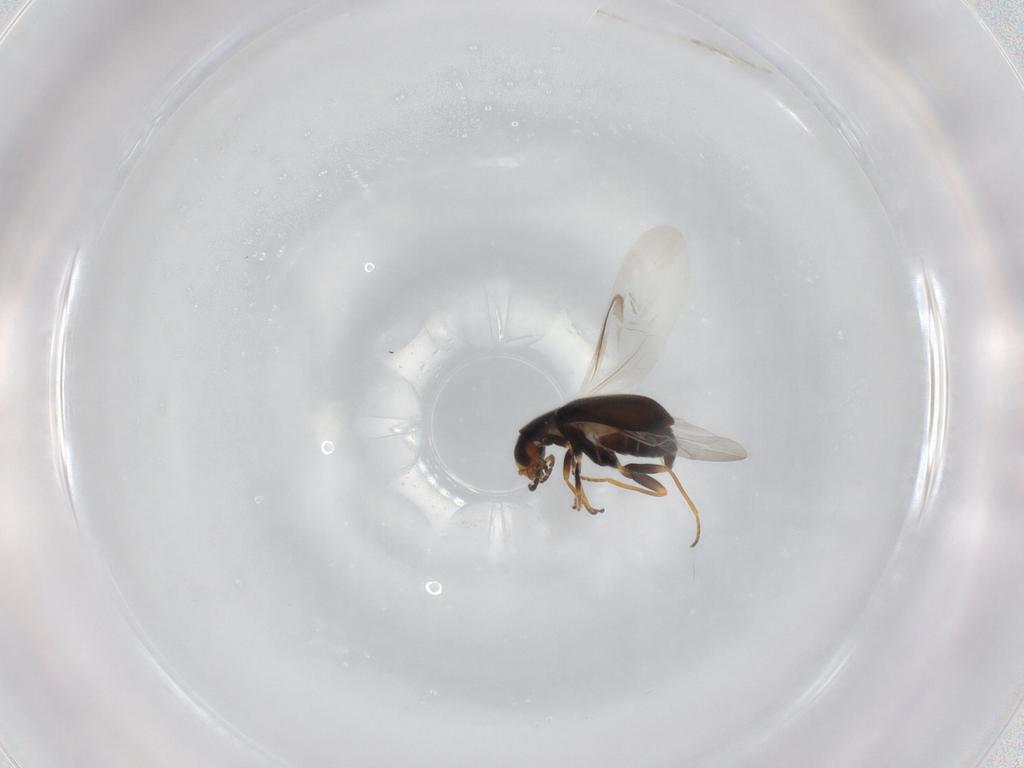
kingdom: Animalia
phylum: Arthropoda
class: Insecta
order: Coleoptera
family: Melyridae
